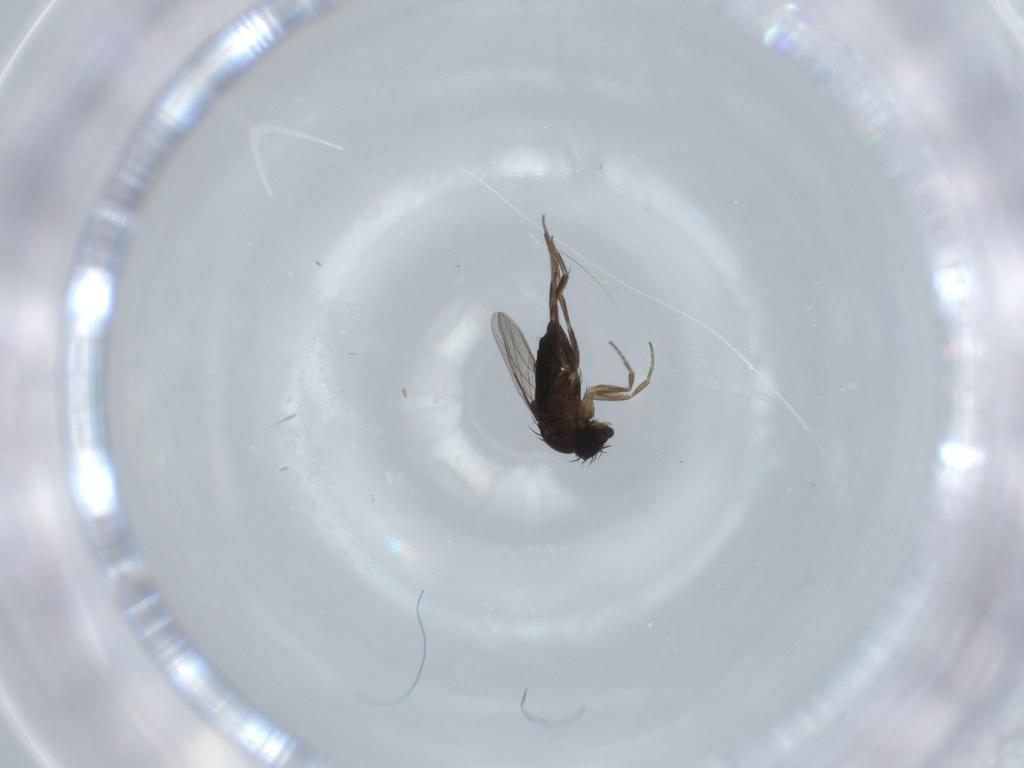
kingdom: Animalia
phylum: Arthropoda
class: Insecta
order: Diptera
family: Phoridae
